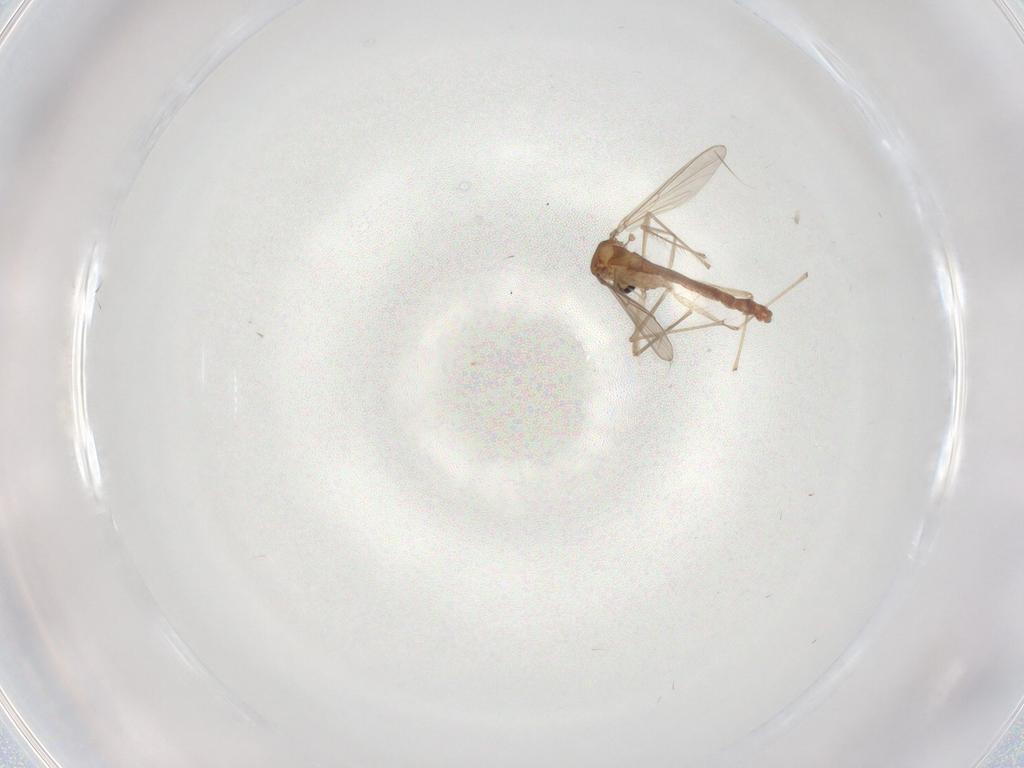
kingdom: Animalia
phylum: Arthropoda
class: Insecta
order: Diptera
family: Chironomidae
